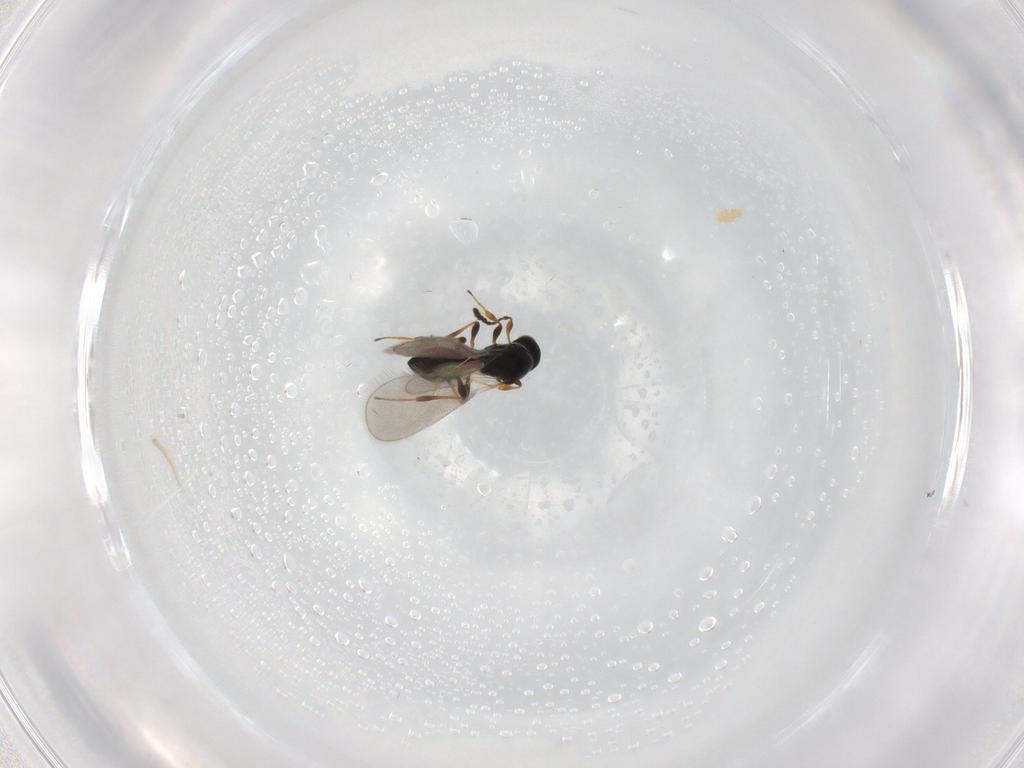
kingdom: Animalia
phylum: Arthropoda
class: Insecta
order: Hymenoptera
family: Platygastridae
